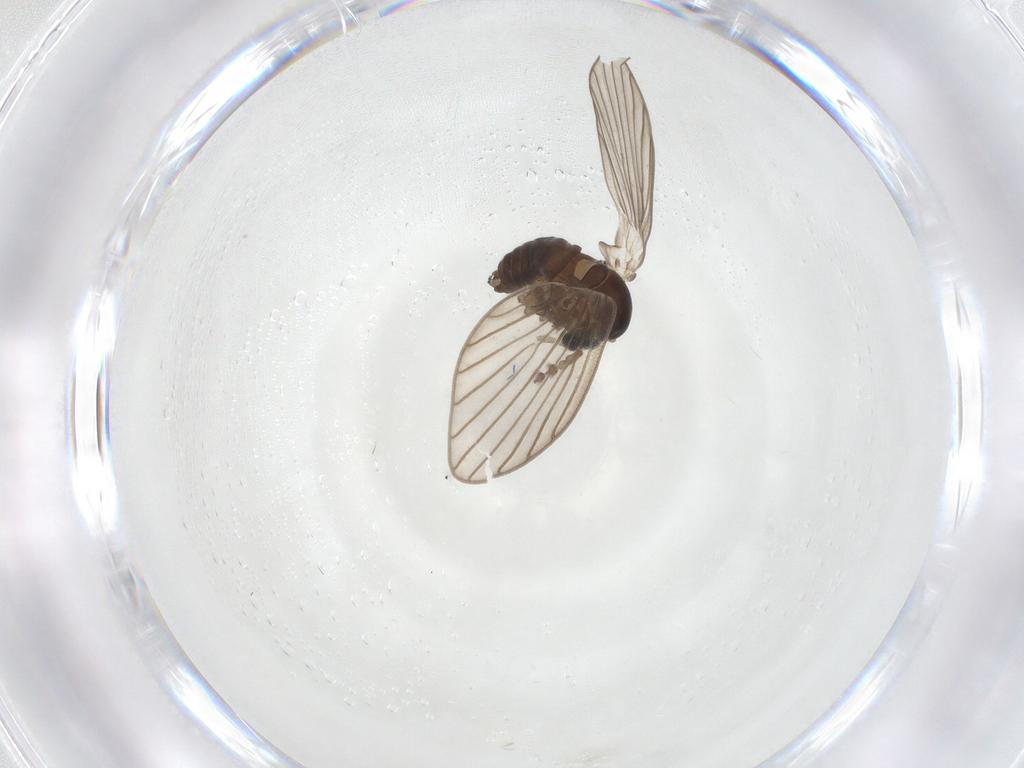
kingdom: Animalia
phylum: Arthropoda
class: Insecta
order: Diptera
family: Psychodidae
